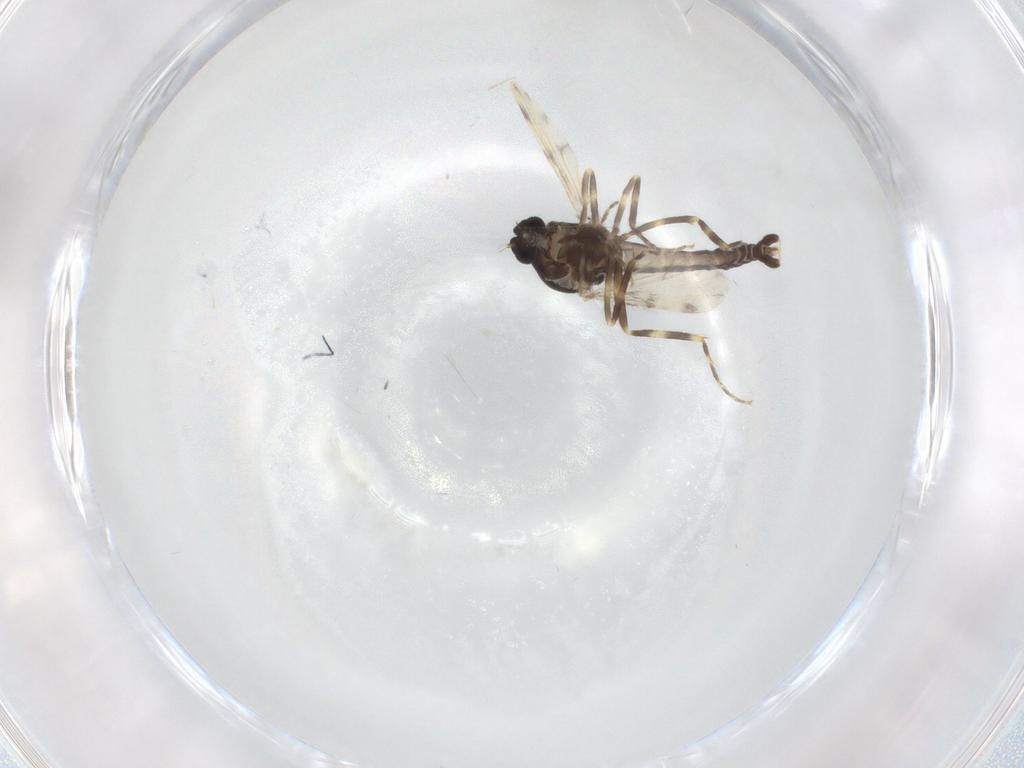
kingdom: Animalia
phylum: Arthropoda
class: Insecta
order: Diptera
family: Ceratopogonidae
